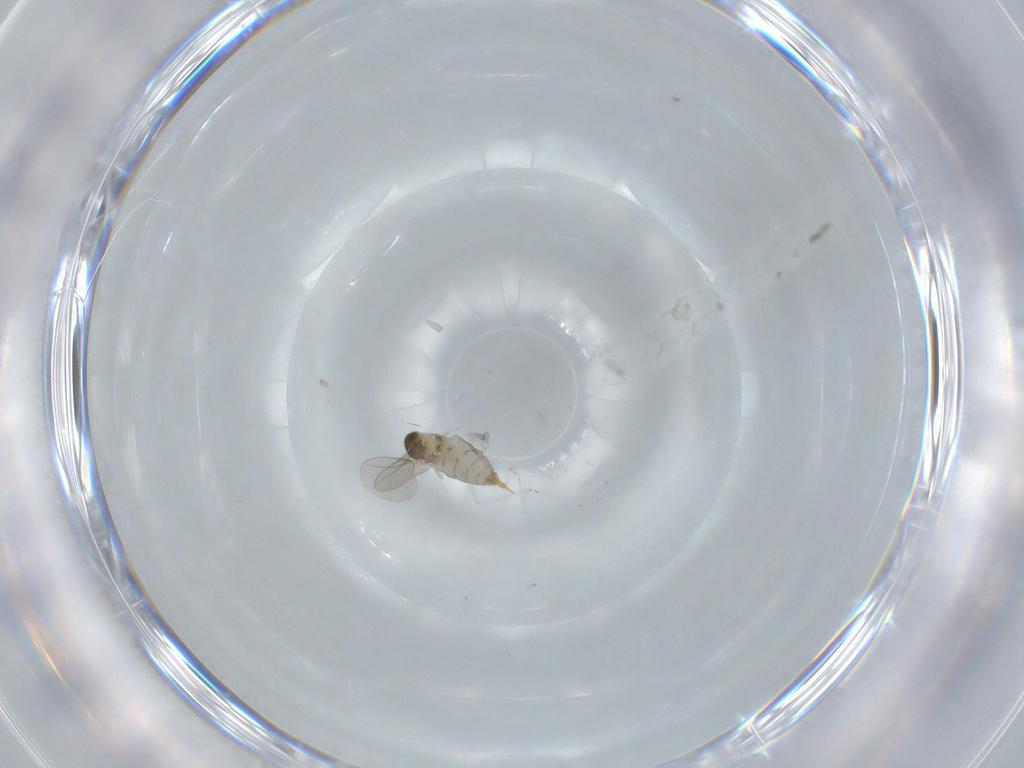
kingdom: Animalia
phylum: Arthropoda
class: Insecta
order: Diptera
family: Cecidomyiidae
